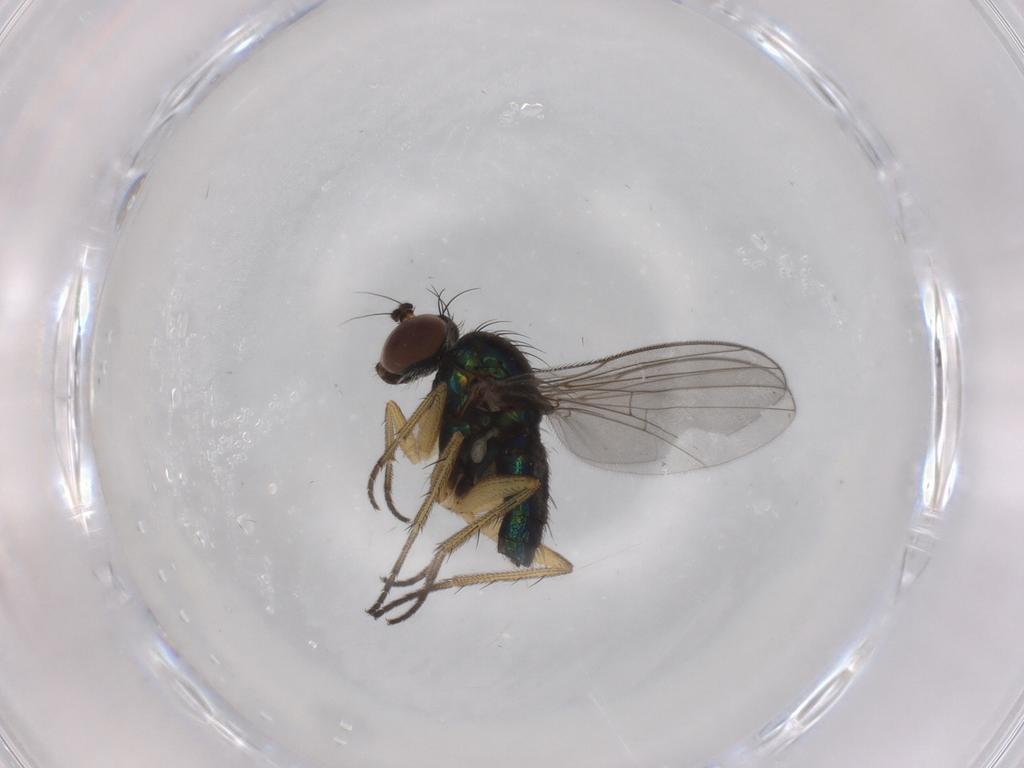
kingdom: Animalia
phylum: Arthropoda
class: Insecta
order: Diptera
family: Dolichopodidae
